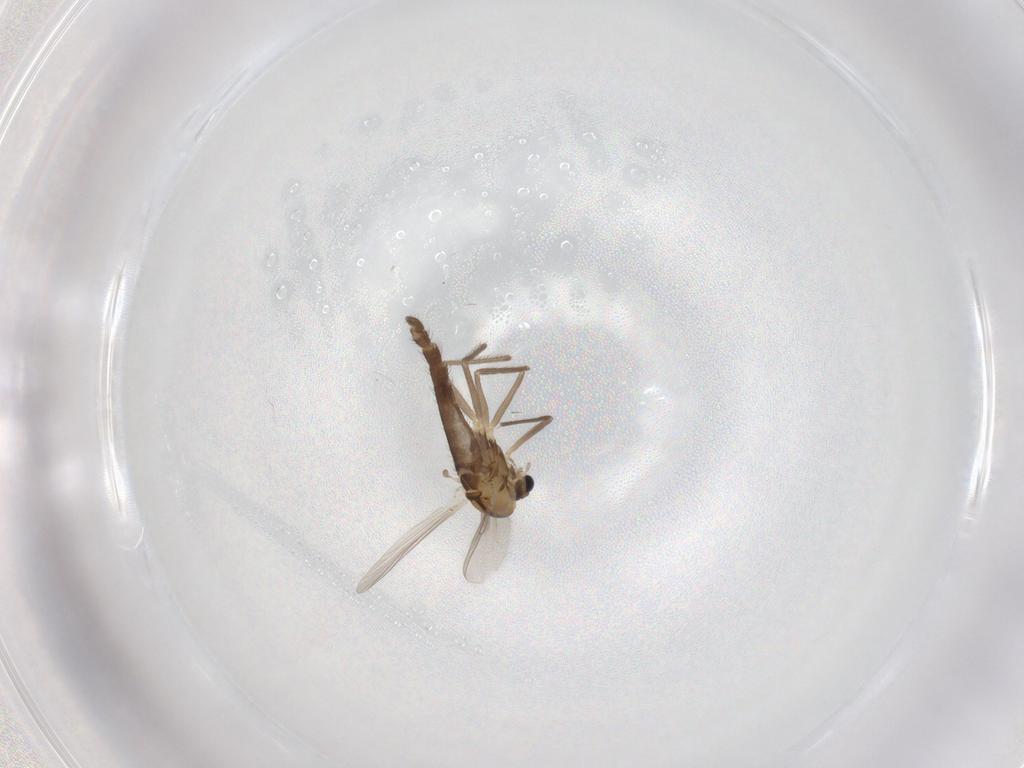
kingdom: Animalia
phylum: Arthropoda
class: Insecta
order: Diptera
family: Chironomidae
